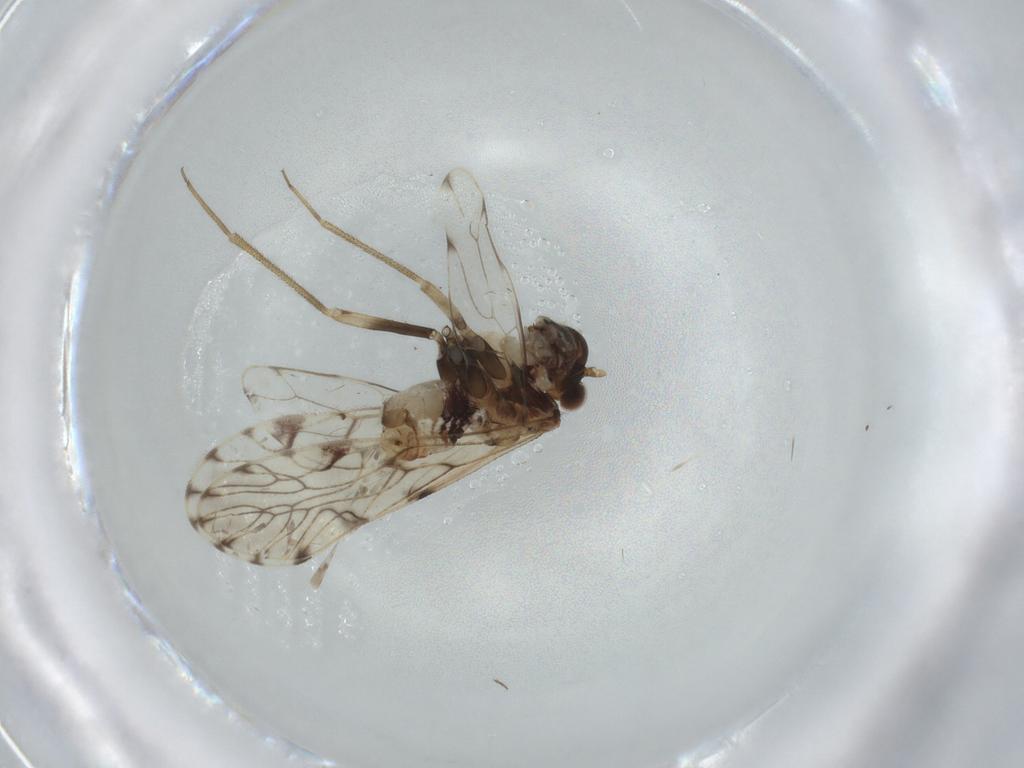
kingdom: Animalia
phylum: Arthropoda
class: Insecta
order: Psocodea
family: Epipsocidae
